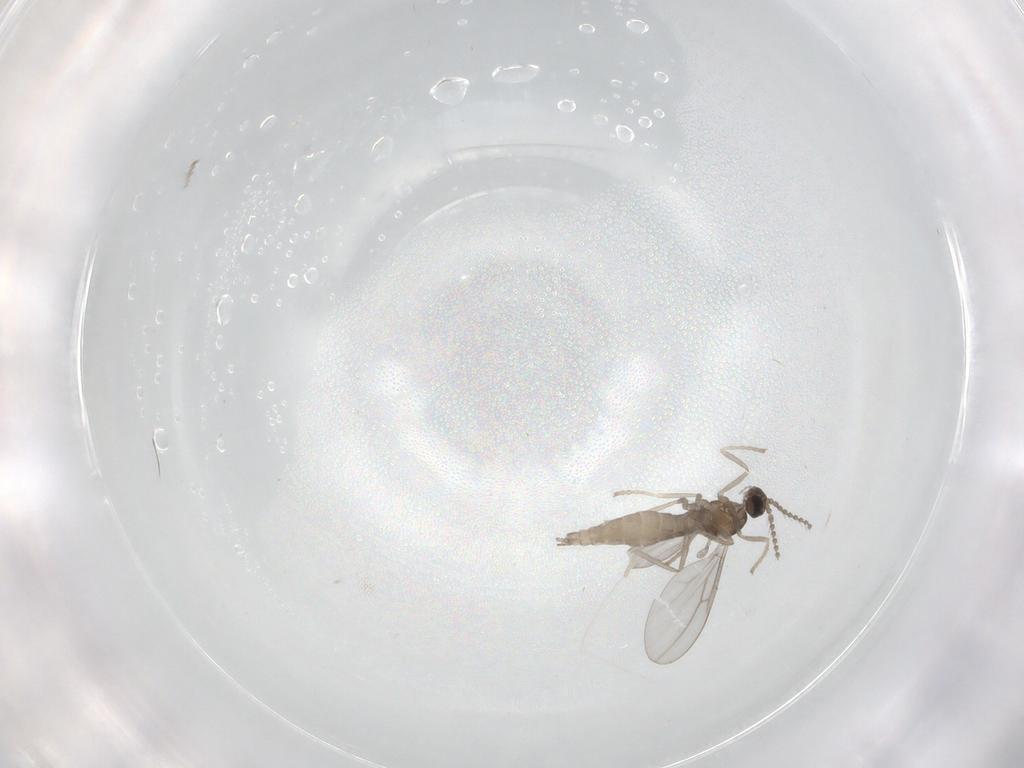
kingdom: Animalia
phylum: Arthropoda
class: Insecta
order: Diptera
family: Cecidomyiidae
